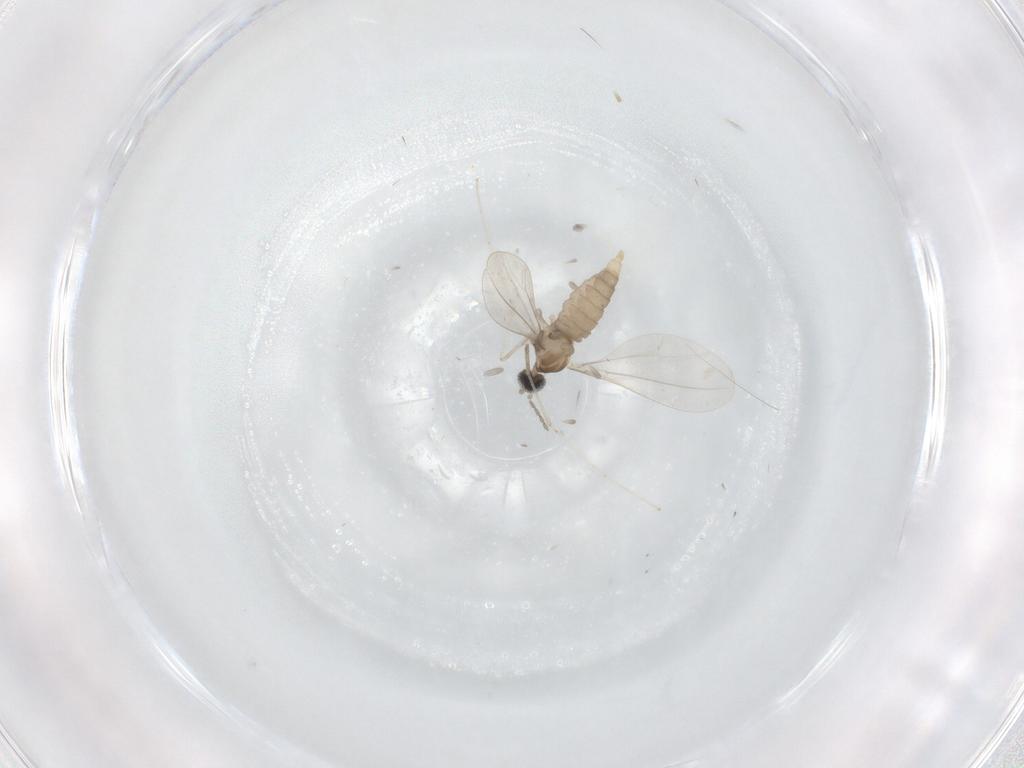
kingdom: Animalia
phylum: Arthropoda
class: Insecta
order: Diptera
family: Cecidomyiidae
